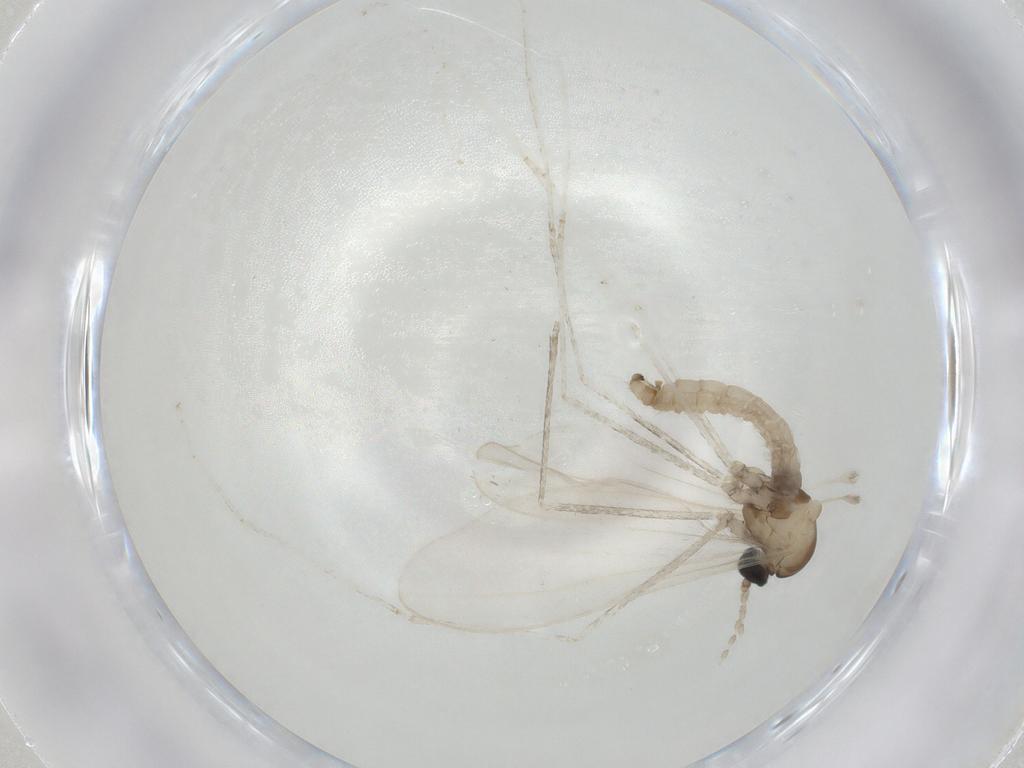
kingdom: Animalia
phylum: Arthropoda
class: Insecta
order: Diptera
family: Cecidomyiidae
